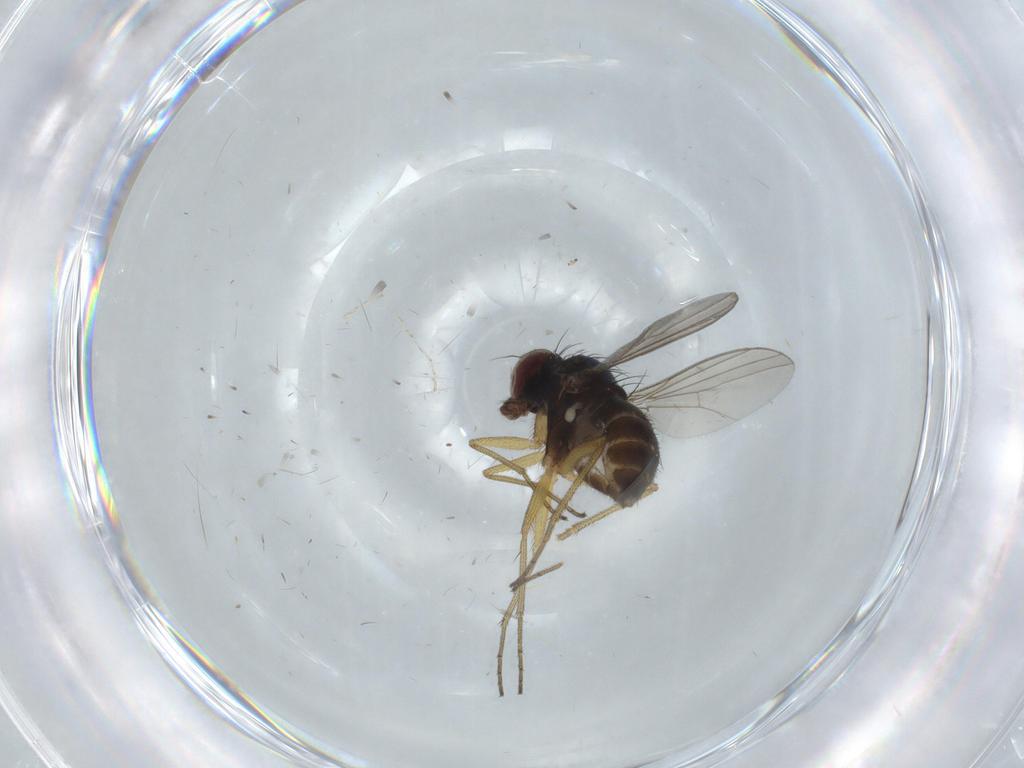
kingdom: Animalia
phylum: Arthropoda
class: Insecta
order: Diptera
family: Dolichopodidae
